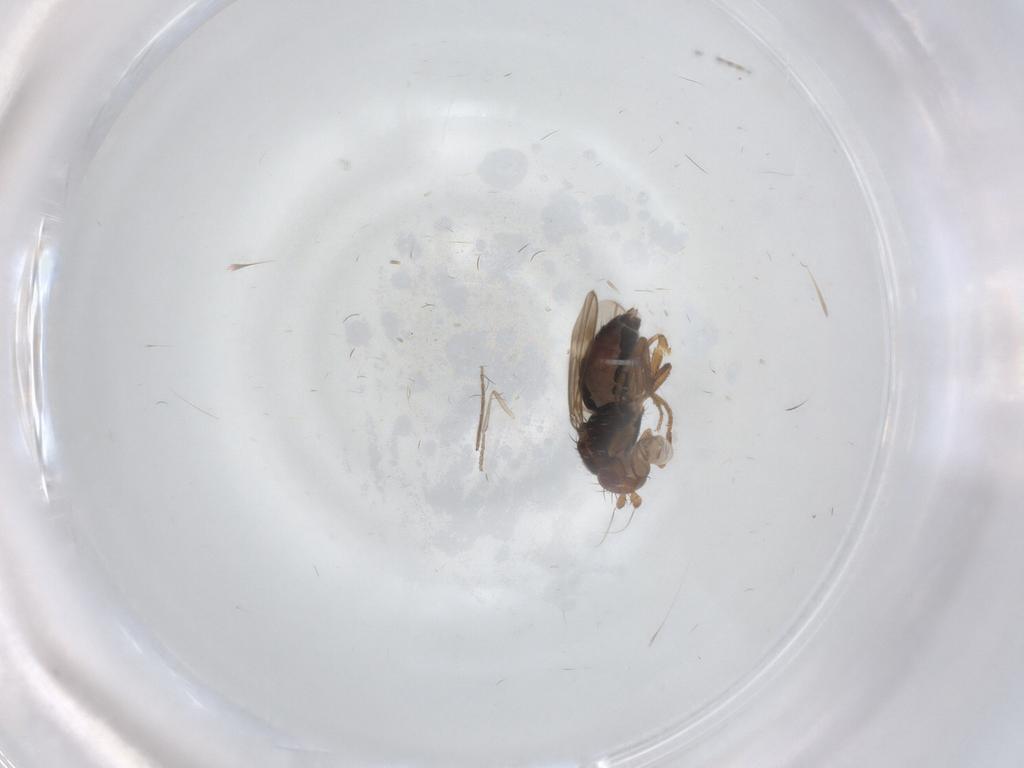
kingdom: Animalia
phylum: Arthropoda
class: Insecta
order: Diptera
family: Sphaeroceridae
